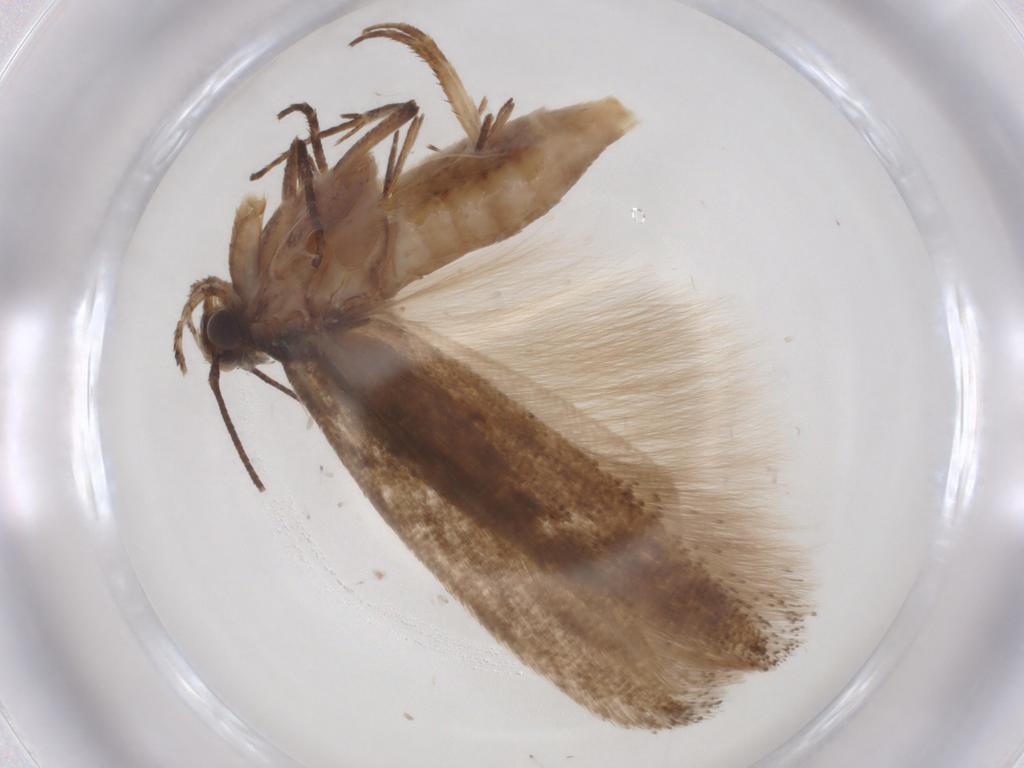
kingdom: Animalia
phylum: Arthropoda
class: Insecta
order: Lepidoptera
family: Gelechiidae
